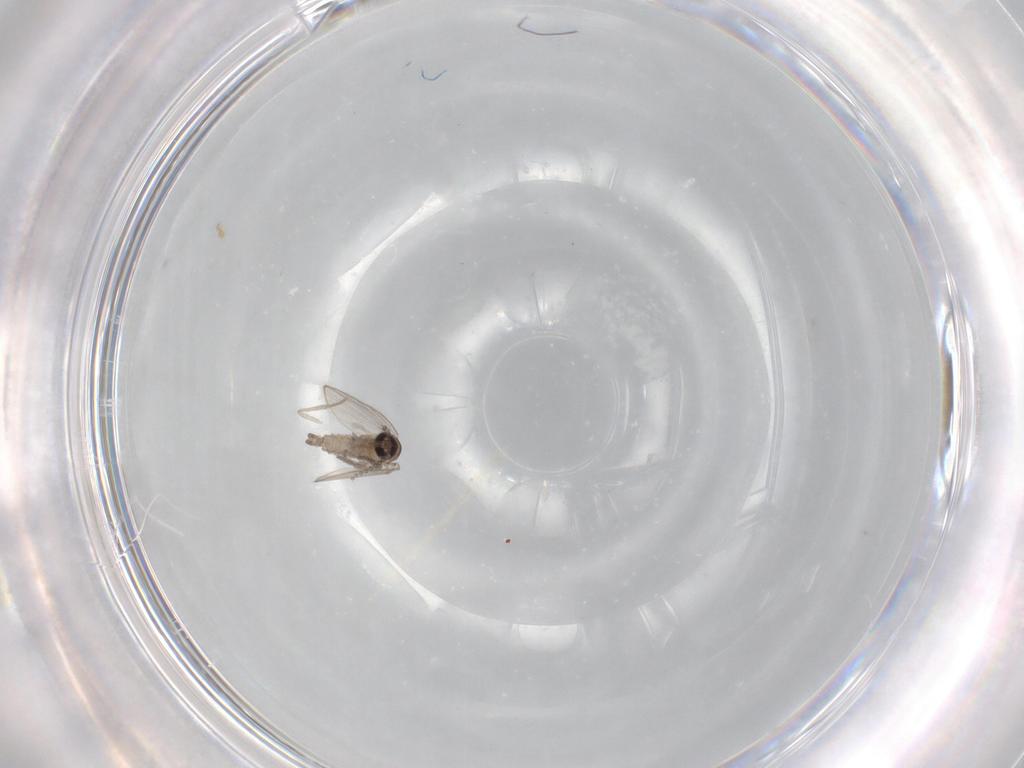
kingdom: Animalia
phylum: Arthropoda
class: Insecta
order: Diptera
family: Psychodidae
